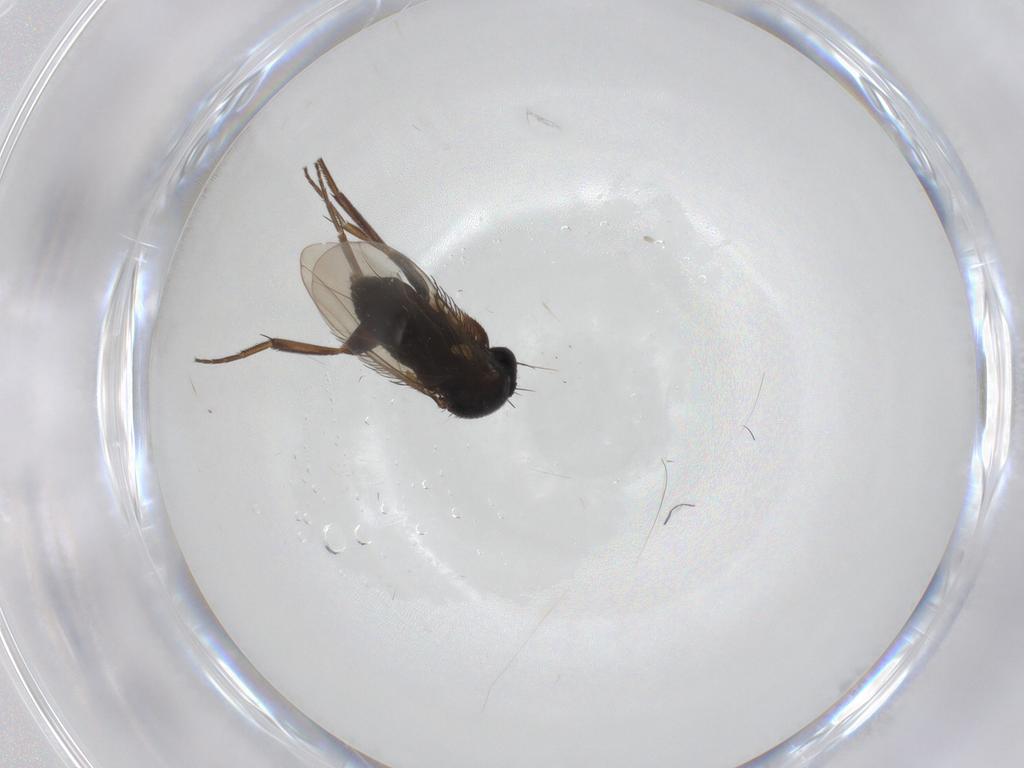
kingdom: Animalia
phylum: Arthropoda
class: Insecta
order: Diptera
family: Phoridae
